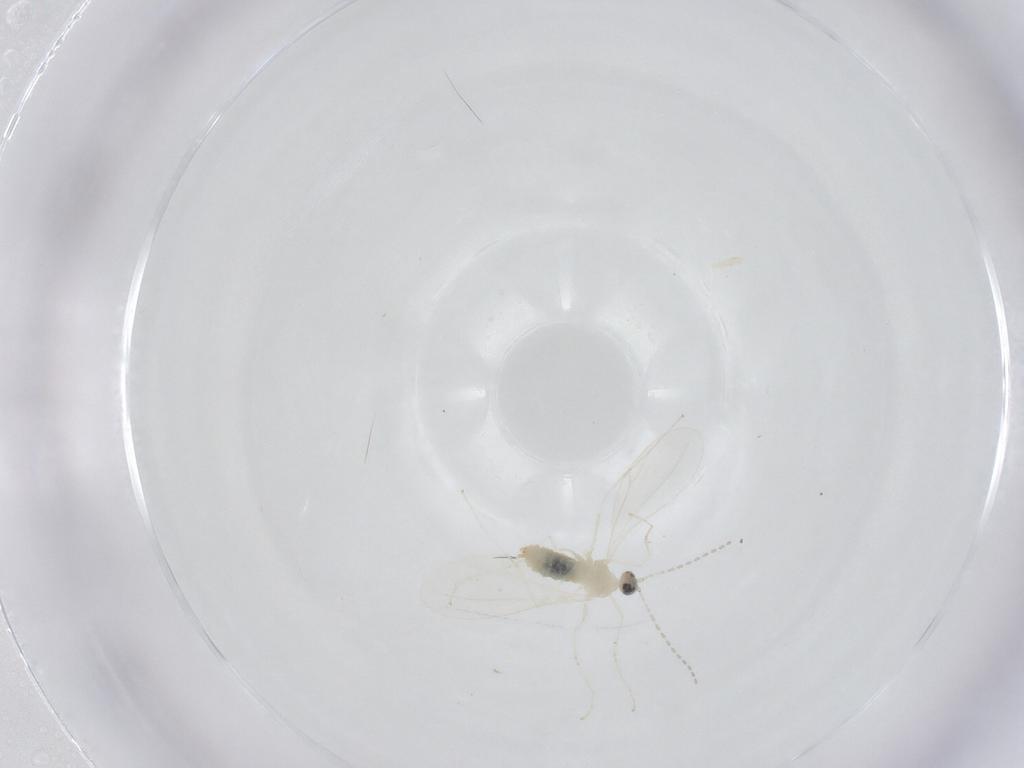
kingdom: Animalia
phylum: Arthropoda
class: Insecta
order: Diptera
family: Cecidomyiidae
